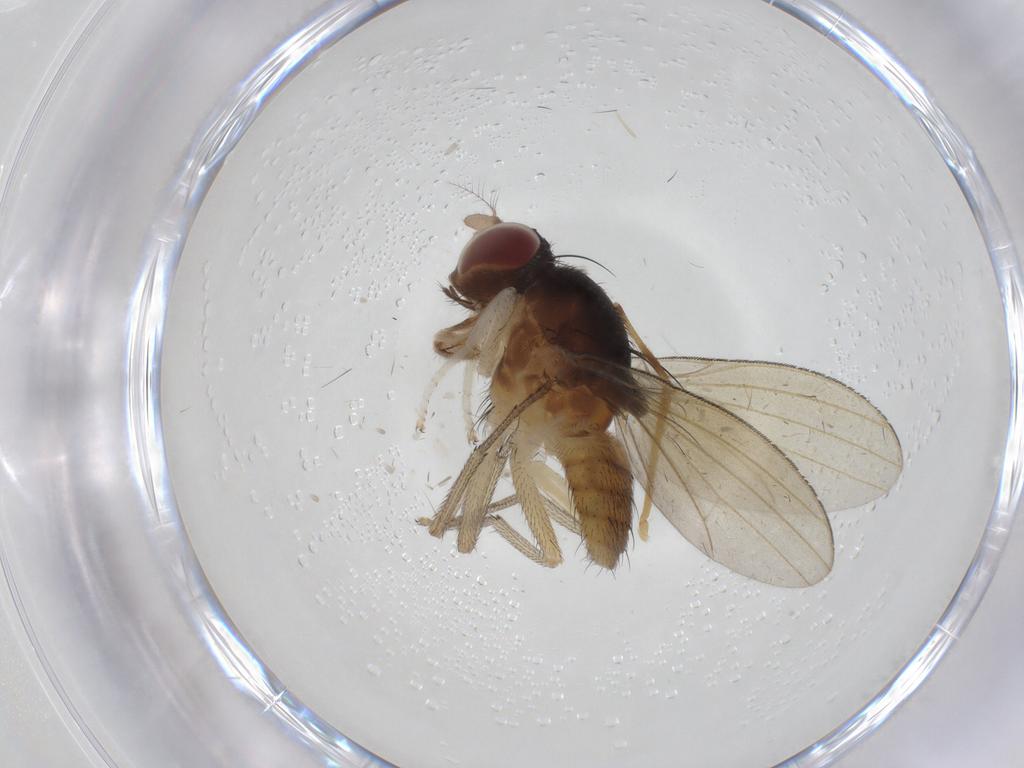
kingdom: Animalia
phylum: Arthropoda
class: Insecta
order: Diptera
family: Lauxaniidae
